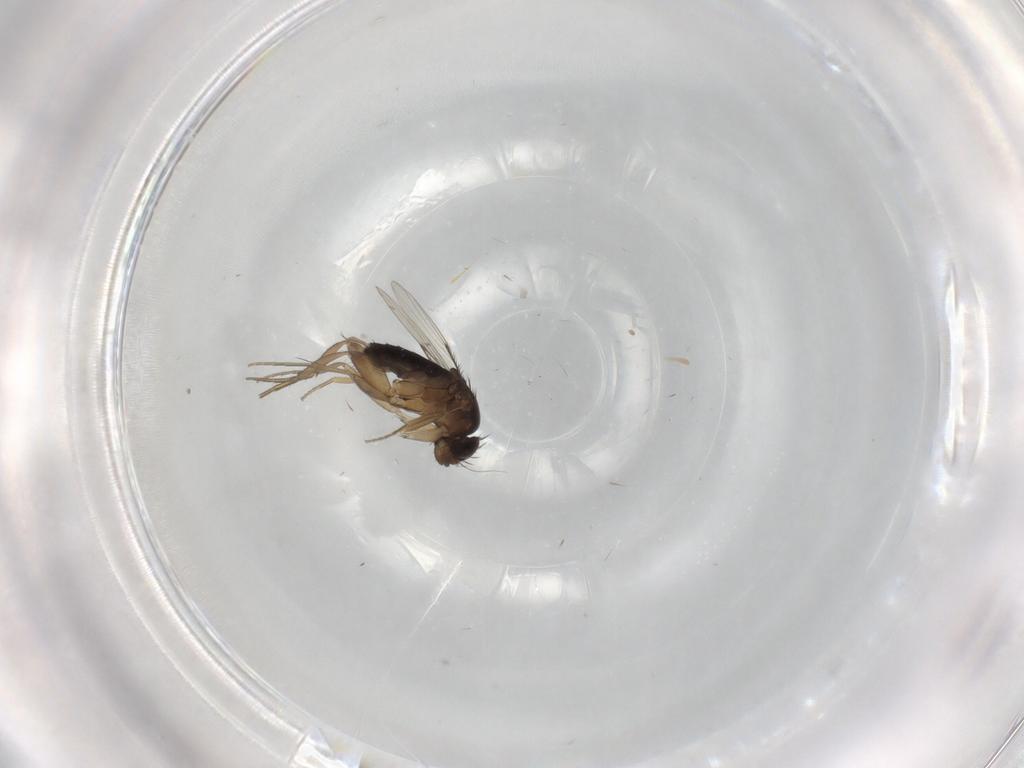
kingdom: Animalia
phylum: Arthropoda
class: Insecta
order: Diptera
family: Phoridae
